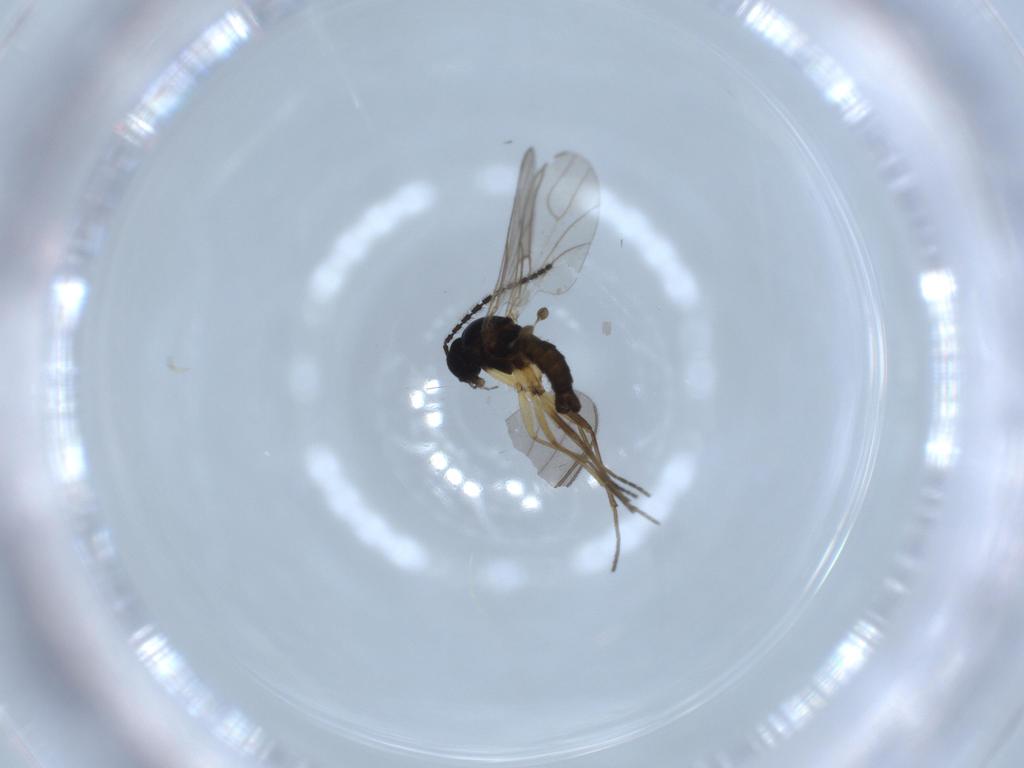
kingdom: Animalia
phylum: Arthropoda
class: Insecta
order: Diptera
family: Sciaridae
